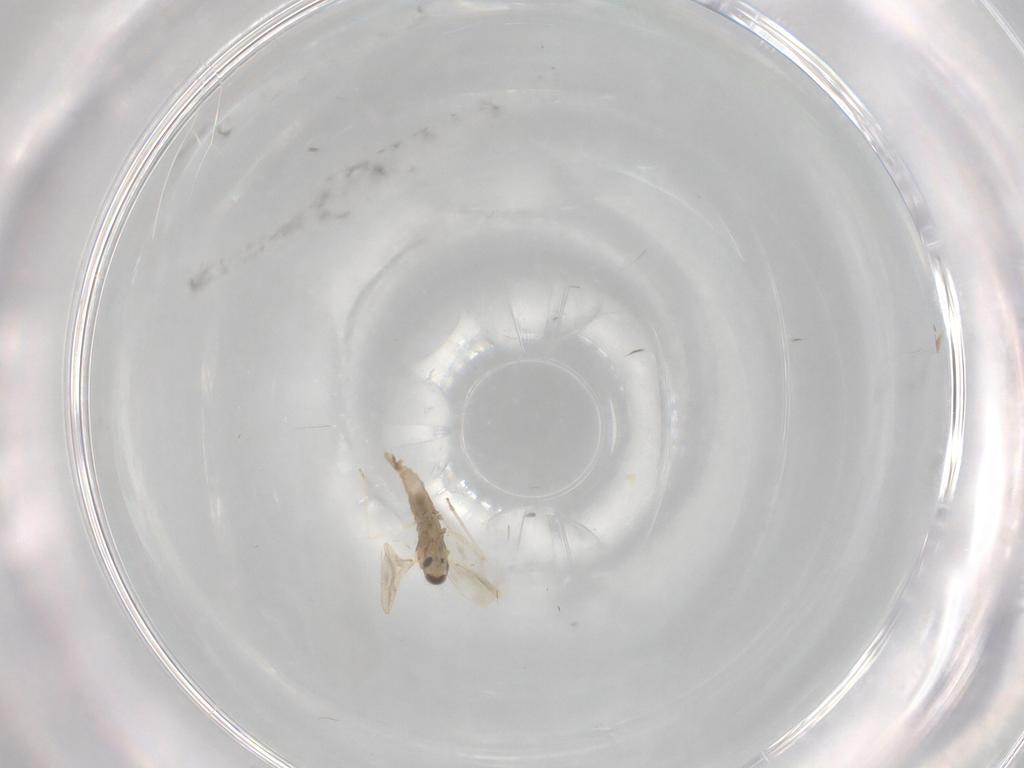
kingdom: Animalia
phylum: Arthropoda
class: Insecta
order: Diptera
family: Cecidomyiidae
